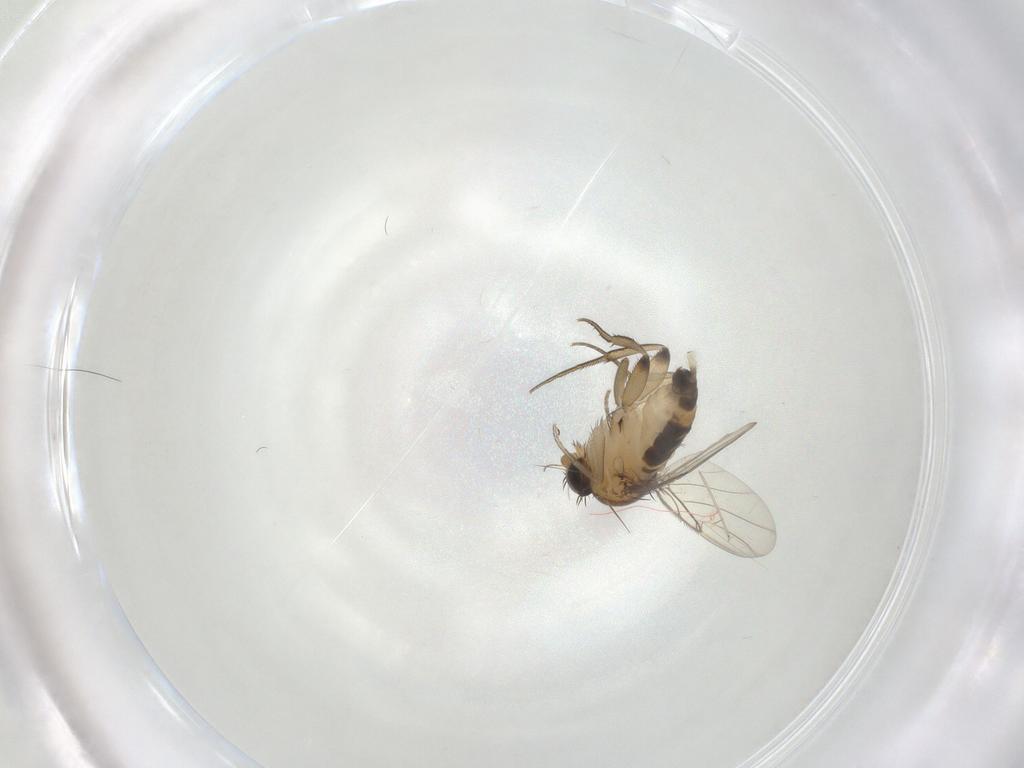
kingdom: Animalia
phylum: Arthropoda
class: Insecta
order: Diptera
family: Phoridae
